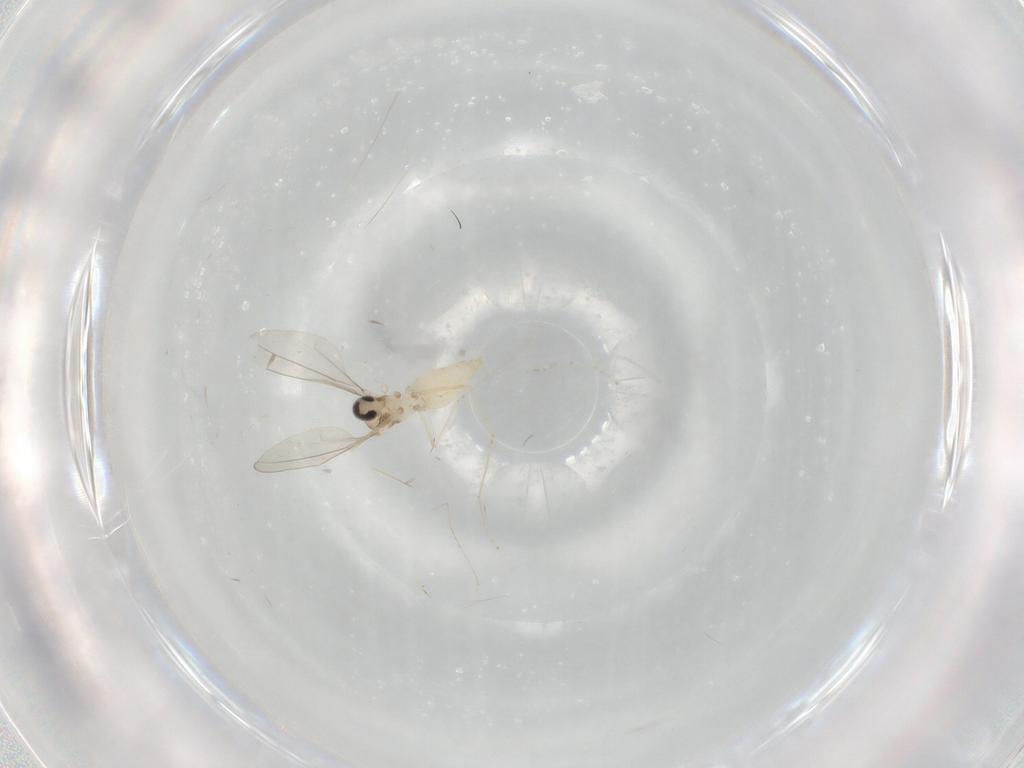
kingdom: Animalia
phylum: Arthropoda
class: Insecta
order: Diptera
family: Cecidomyiidae
